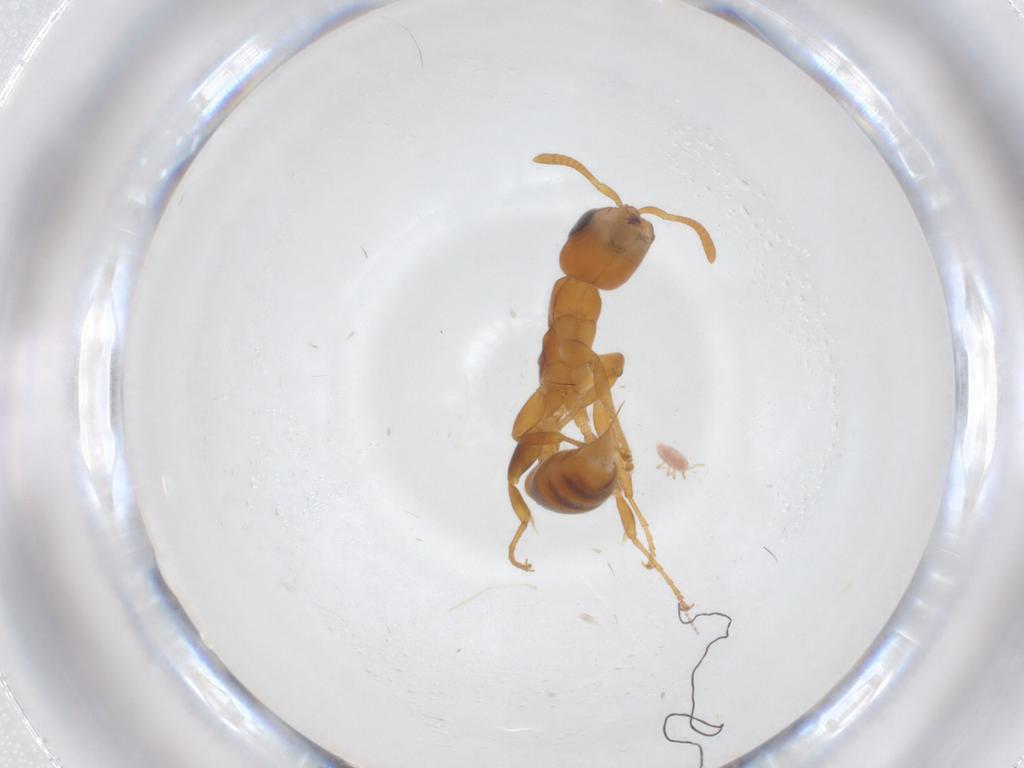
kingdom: Animalia
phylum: Arthropoda
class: Insecta
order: Hymenoptera
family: Formicidae
